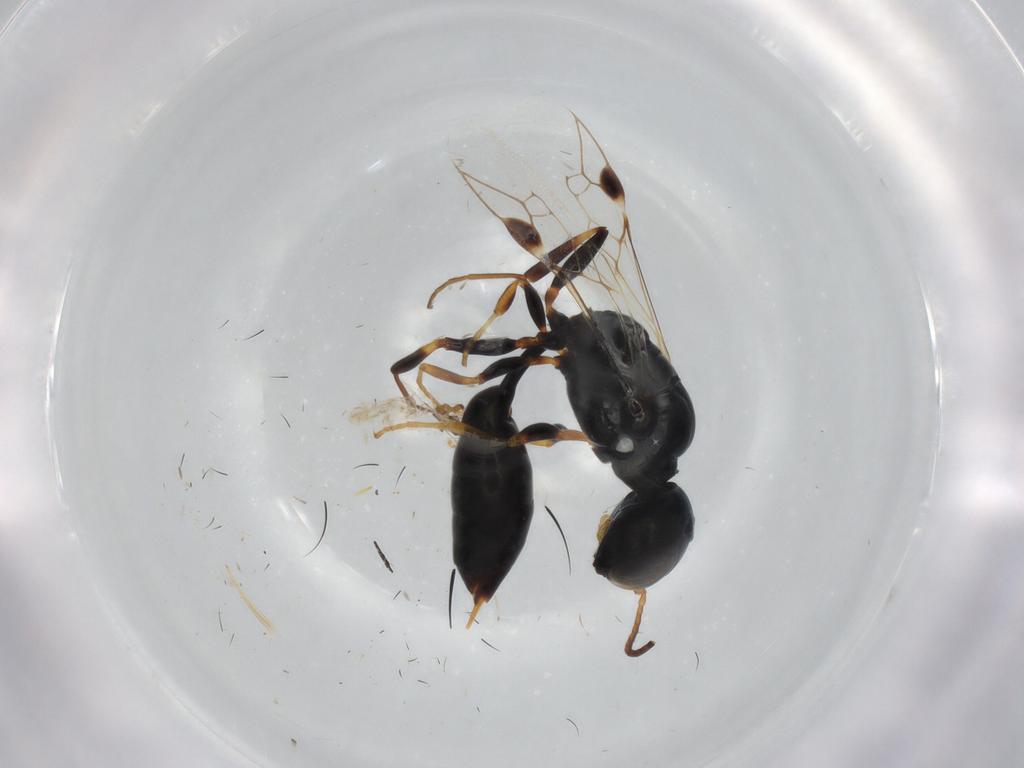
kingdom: Animalia
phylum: Arthropoda
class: Insecta
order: Hymenoptera
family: Crabronidae
